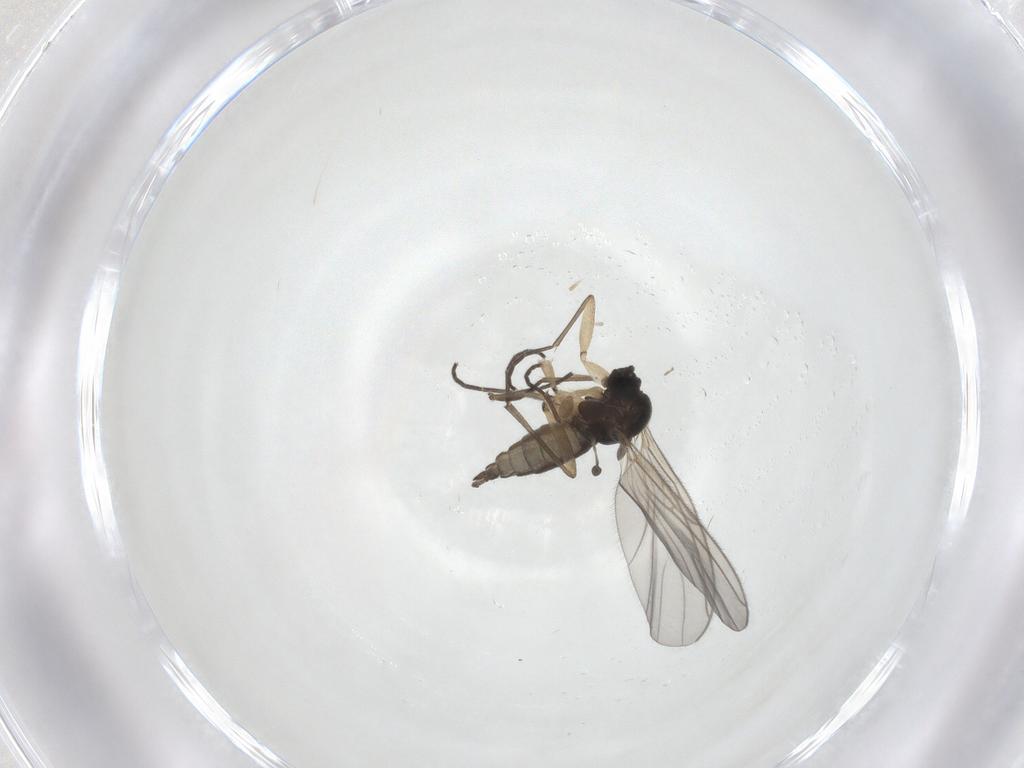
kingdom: Animalia
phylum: Arthropoda
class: Insecta
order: Diptera
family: Sciaridae
